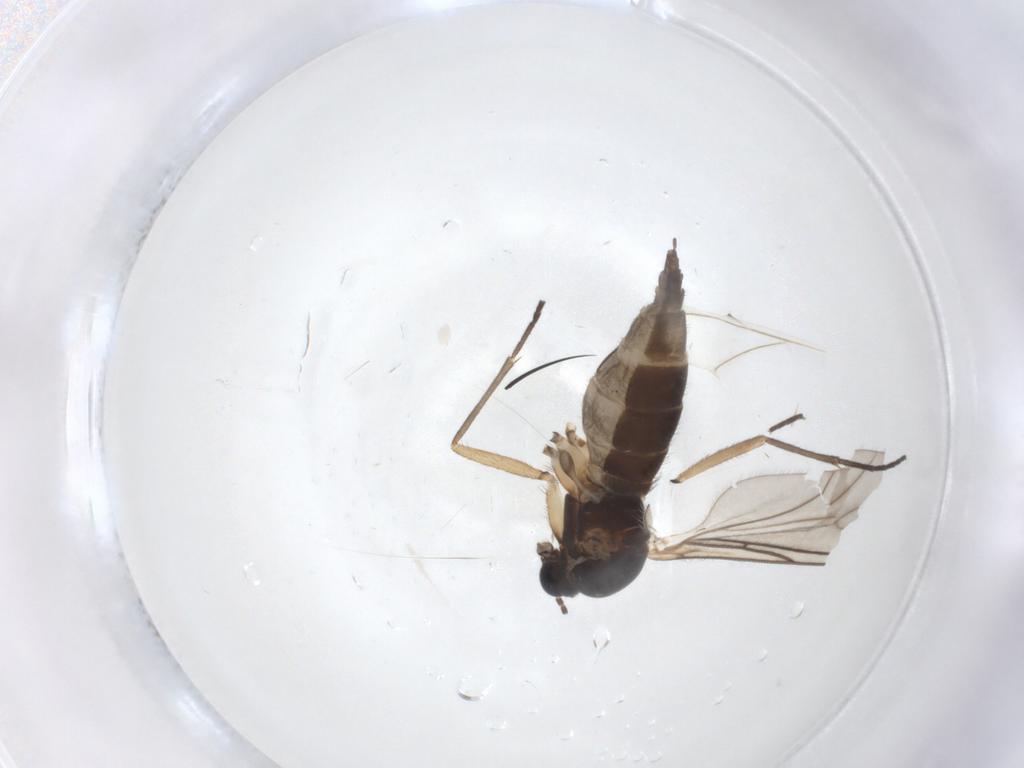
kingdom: Animalia
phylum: Arthropoda
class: Insecta
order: Diptera
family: Sciaridae
